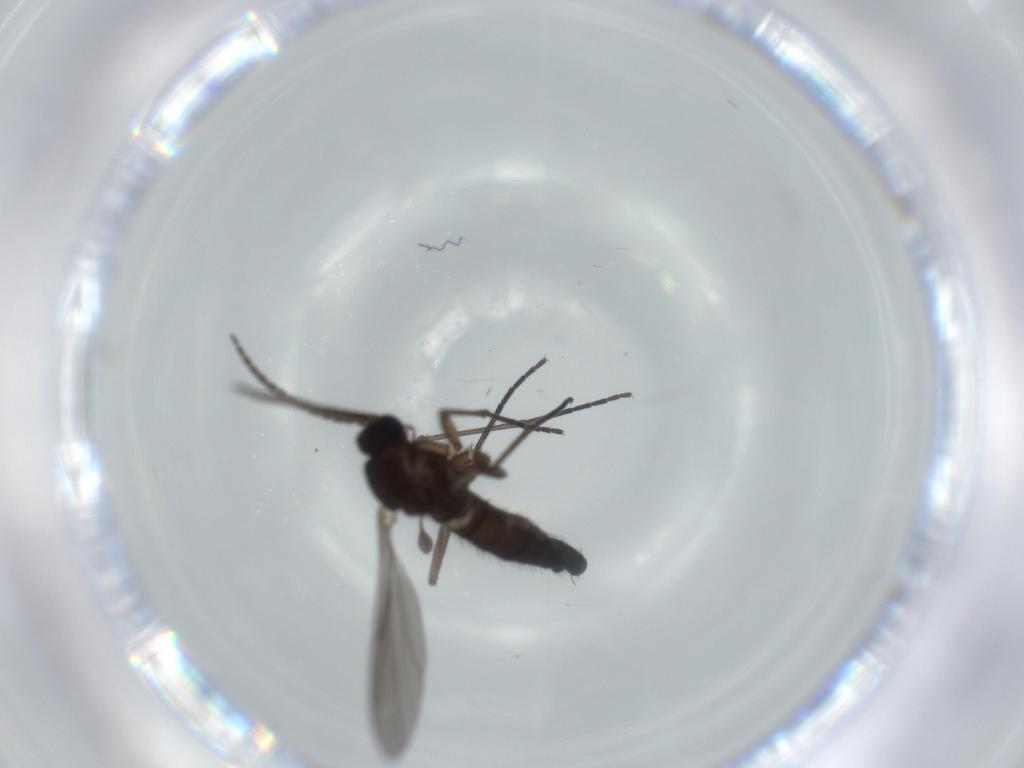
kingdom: Animalia
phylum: Arthropoda
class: Insecta
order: Diptera
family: Sciaridae
